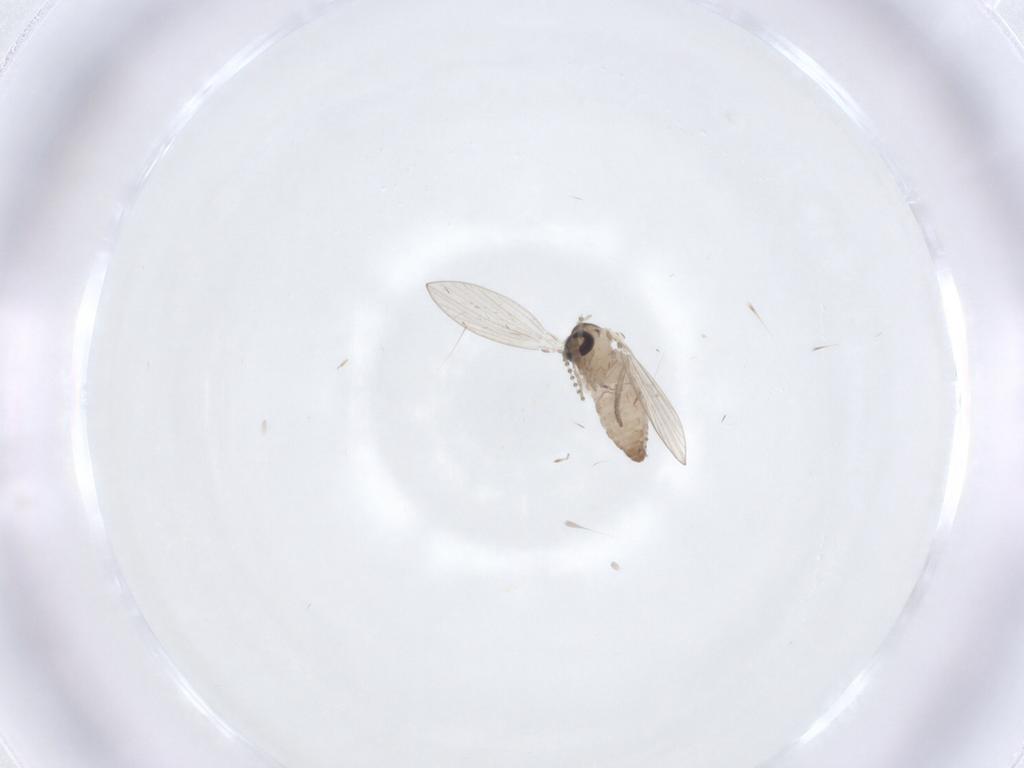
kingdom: Animalia
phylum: Arthropoda
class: Insecta
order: Diptera
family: Psychodidae
